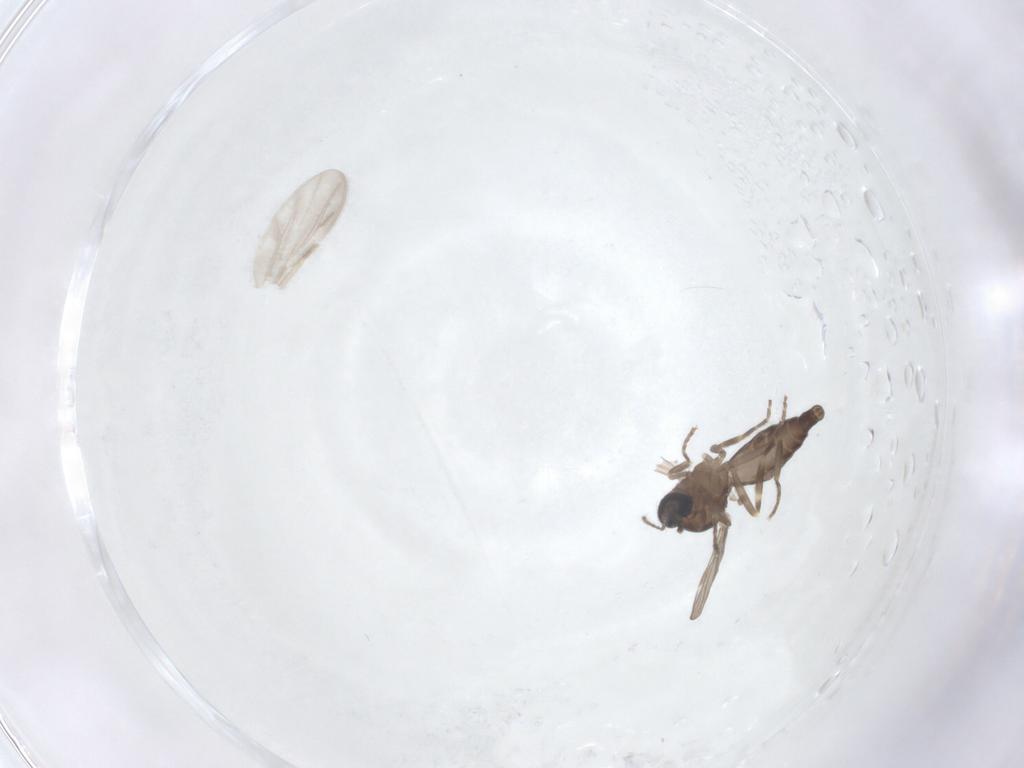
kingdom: Animalia
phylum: Arthropoda
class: Insecta
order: Diptera
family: Ceratopogonidae
